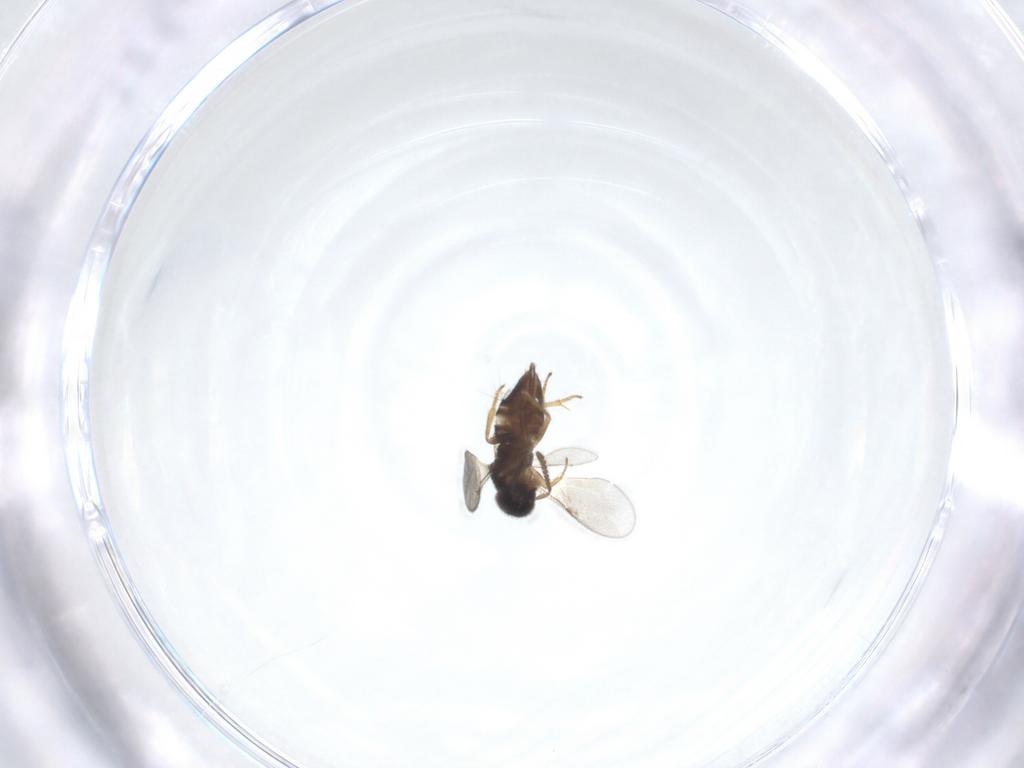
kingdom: Animalia
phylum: Arthropoda
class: Insecta
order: Hymenoptera
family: Encyrtidae
